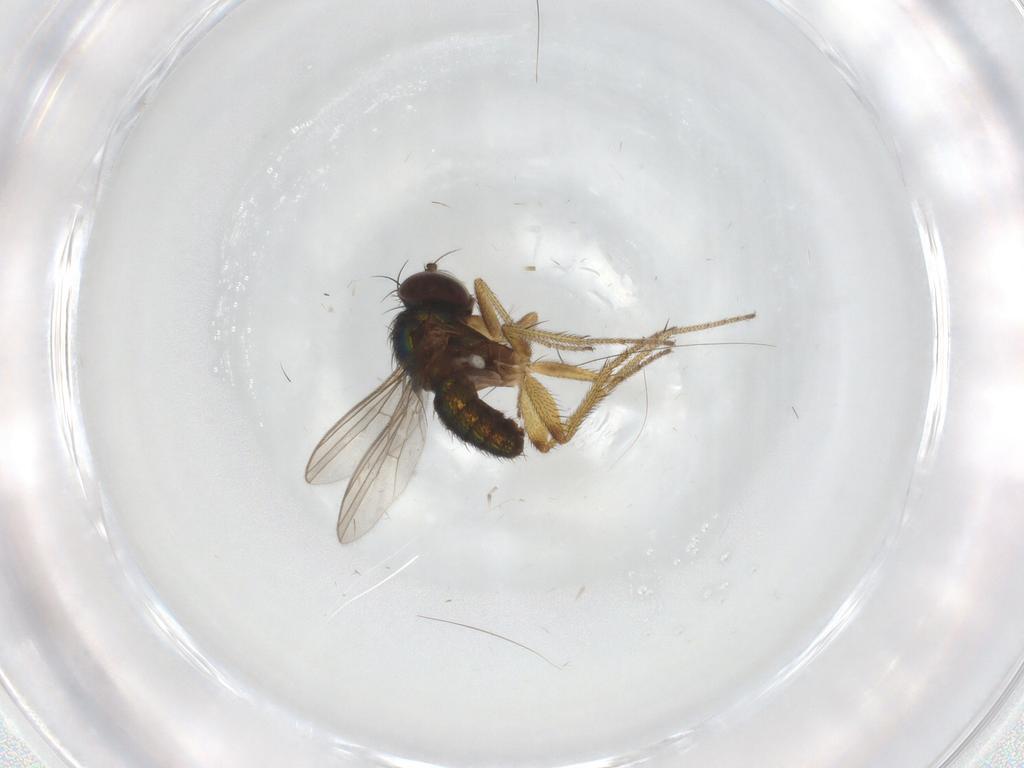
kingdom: Animalia
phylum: Arthropoda
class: Insecta
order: Diptera
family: Dolichopodidae
